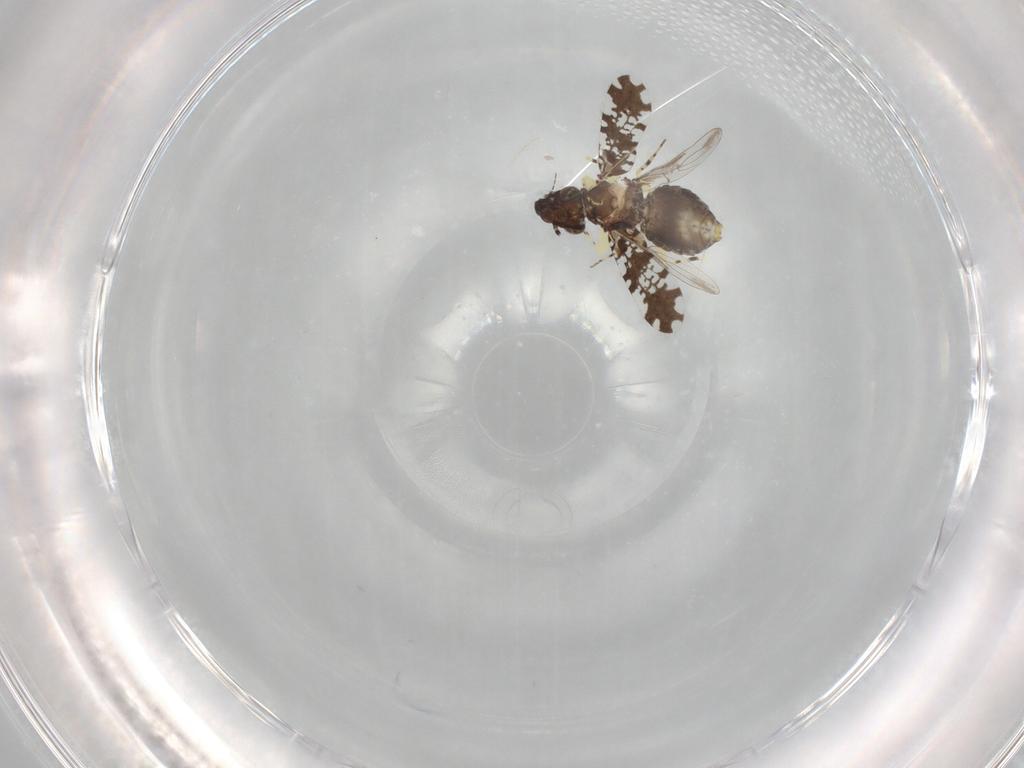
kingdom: Animalia
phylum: Arthropoda
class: Insecta
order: Psocodea
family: Psoquillidae
